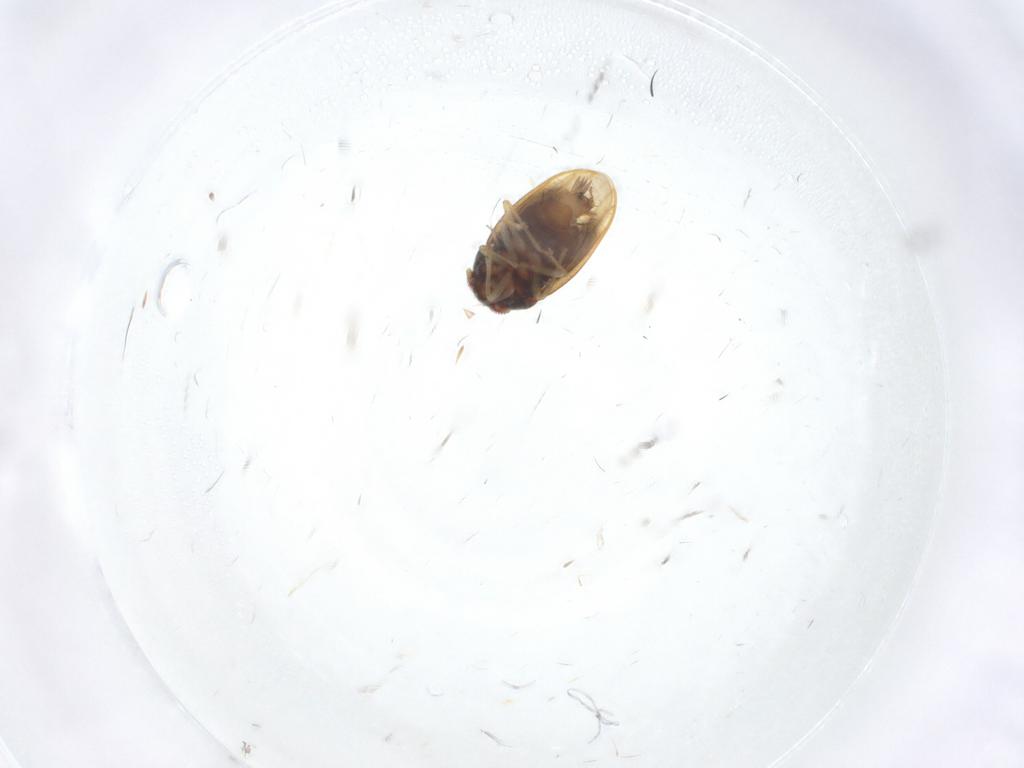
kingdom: Animalia
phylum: Arthropoda
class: Insecta
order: Hemiptera
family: Schizopteridae
